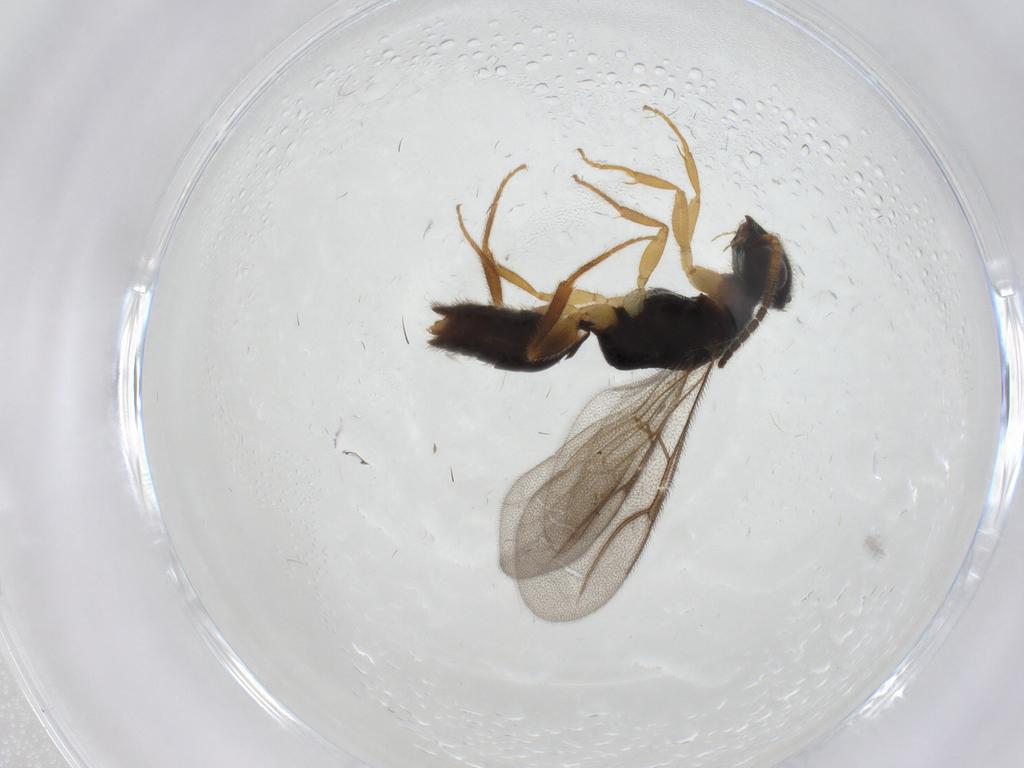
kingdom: Animalia
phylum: Arthropoda
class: Insecta
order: Hymenoptera
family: Bethylidae
